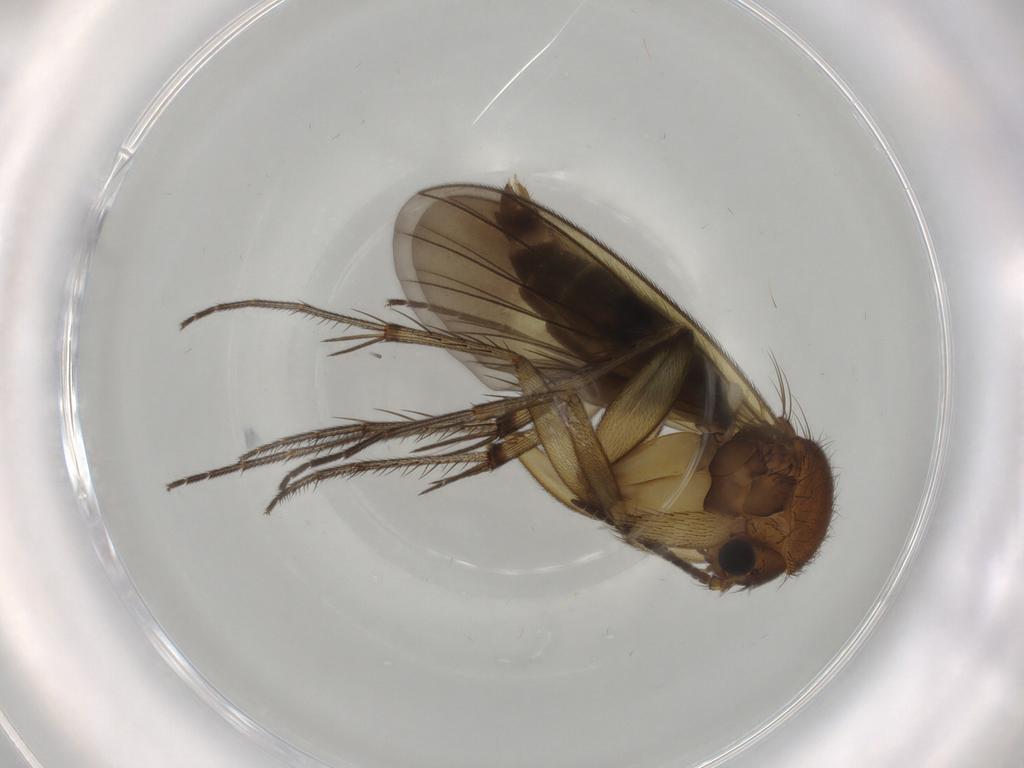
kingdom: Animalia
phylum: Arthropoda
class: Insecta
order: Diptera
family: Mycetophilidae
